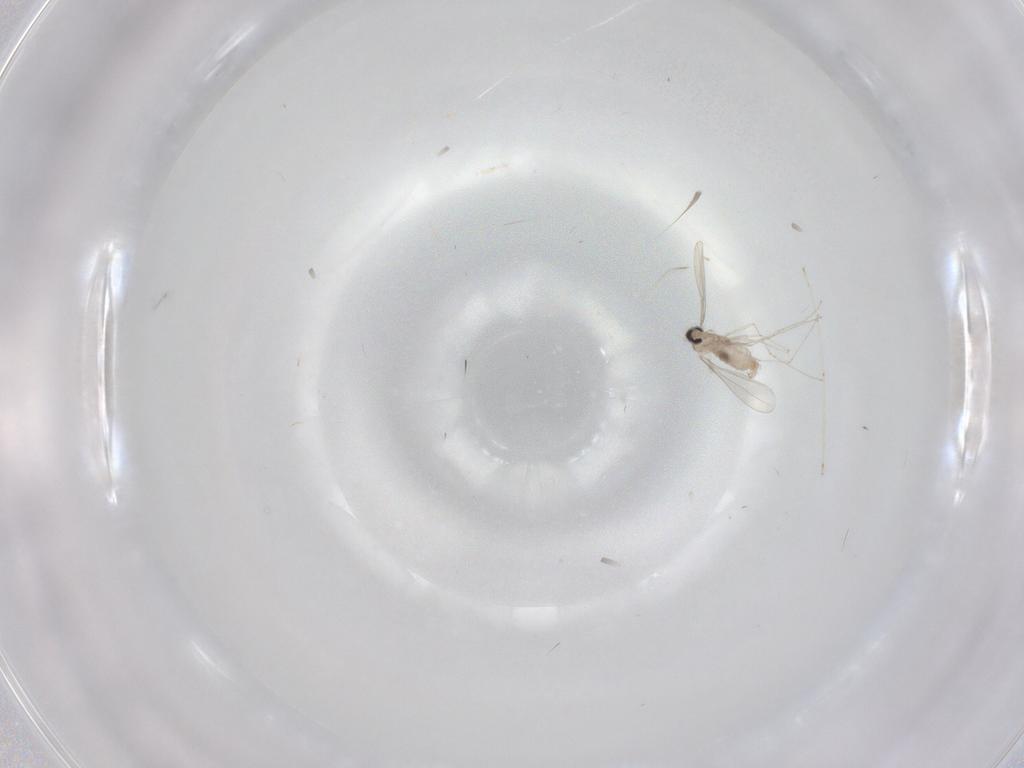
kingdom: Animalia
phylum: Arthropoda
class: Insecta
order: Diptera
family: Cecidomyiidae
